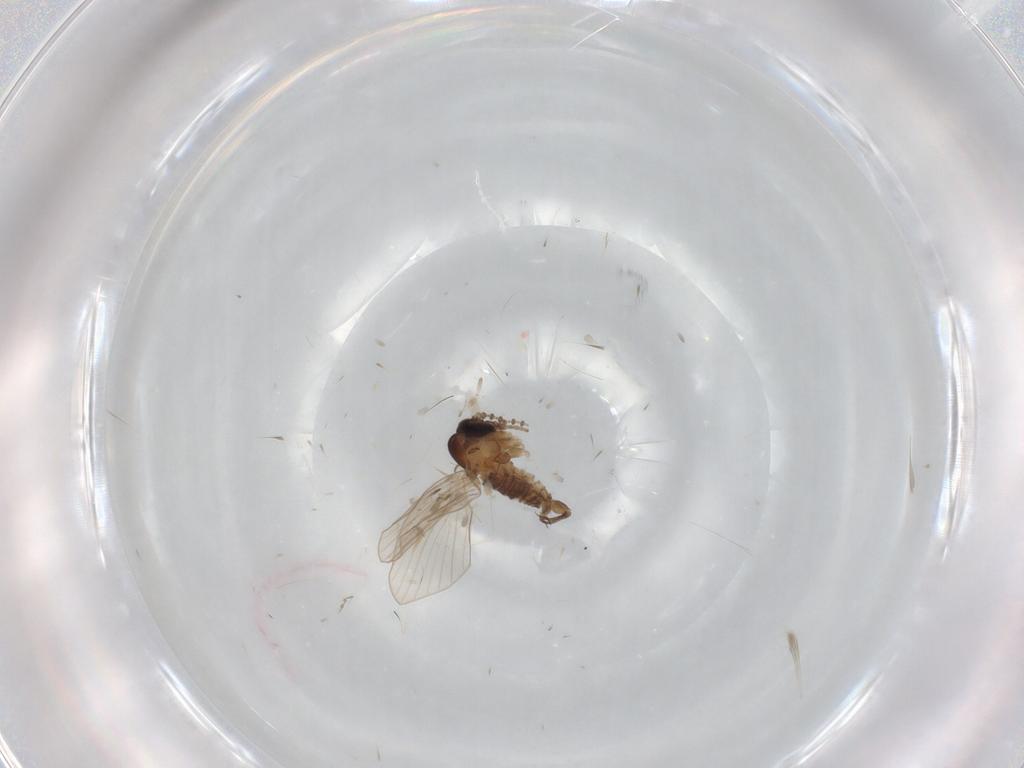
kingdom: Animalia
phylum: Arthropoda
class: Insecta
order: Diptera
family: Psychodidae
